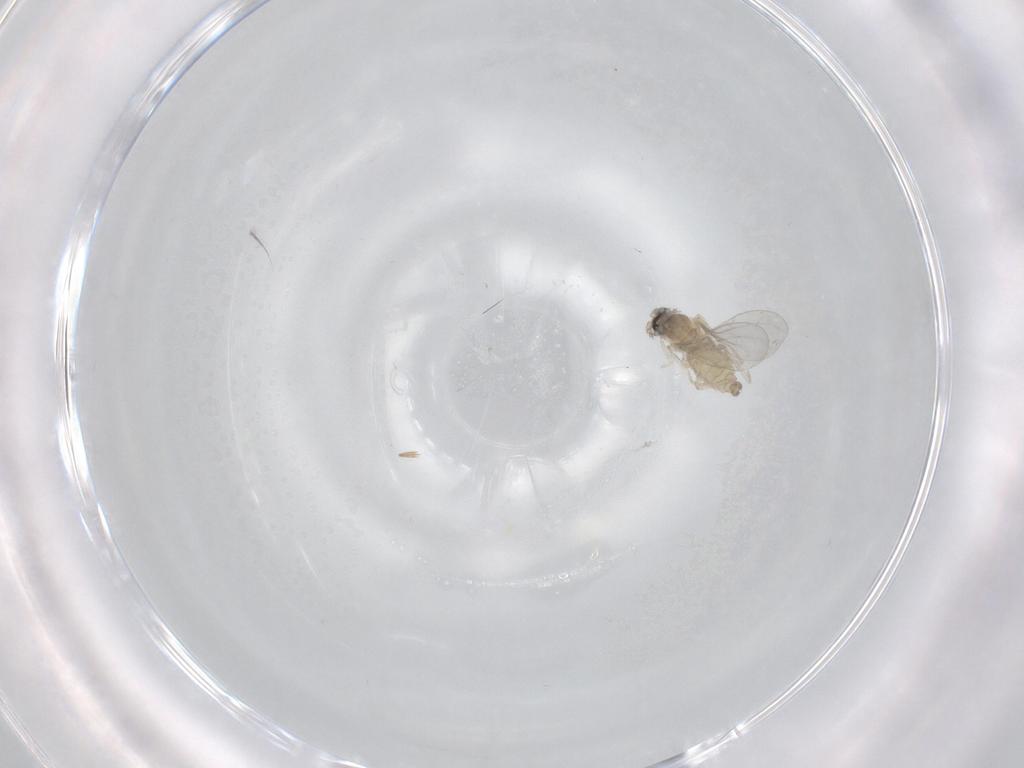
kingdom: Animalia
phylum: Arthropoda
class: Insecta
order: Diptera
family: Cecidomyiidae
